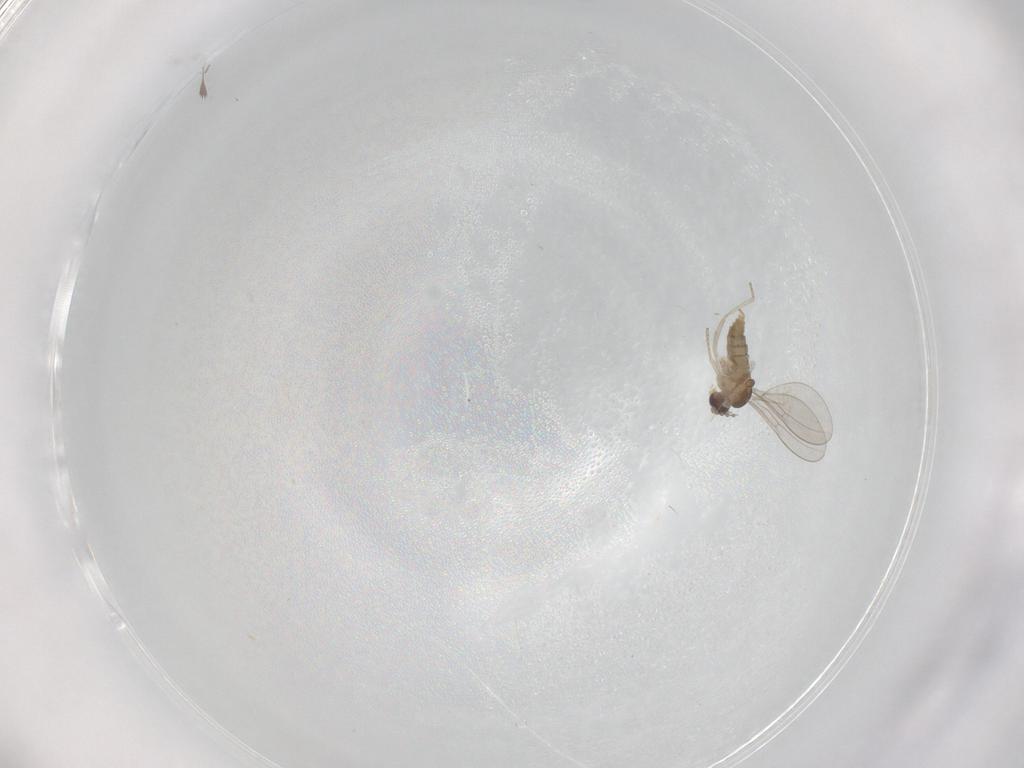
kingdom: Animalia
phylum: Arthropoda
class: Insecta
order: Diptera
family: Cecidomyiidae
